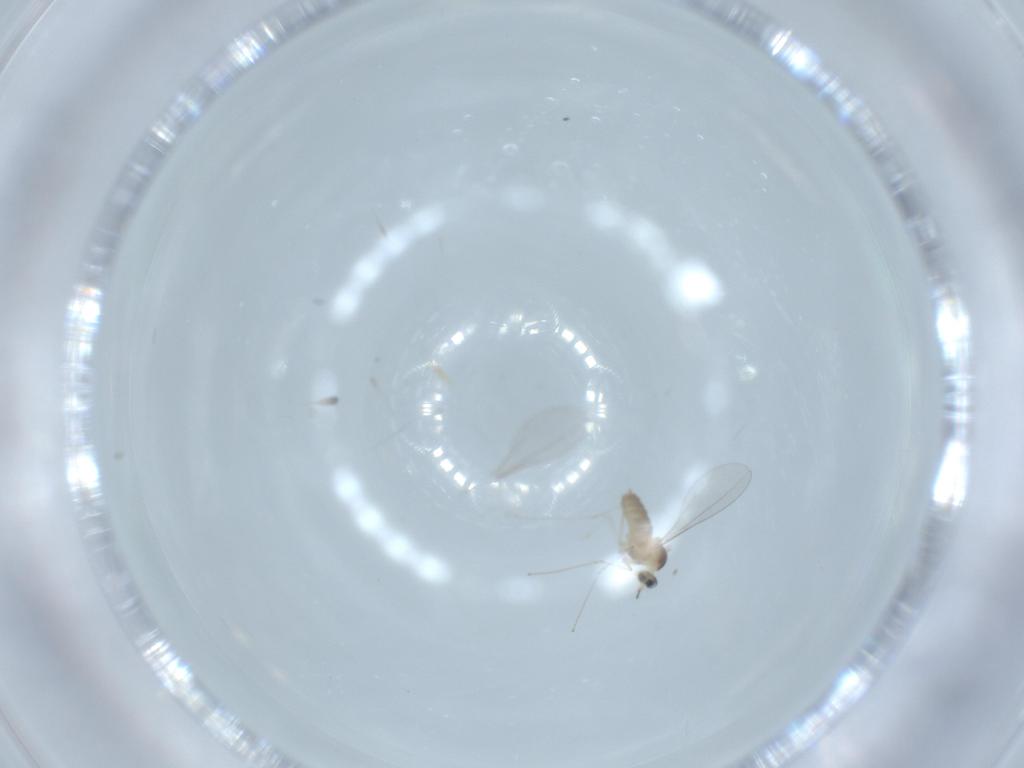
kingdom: Animalia
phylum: Arthropoda
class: Insecta
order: Diptera
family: Cecidomyiidae
